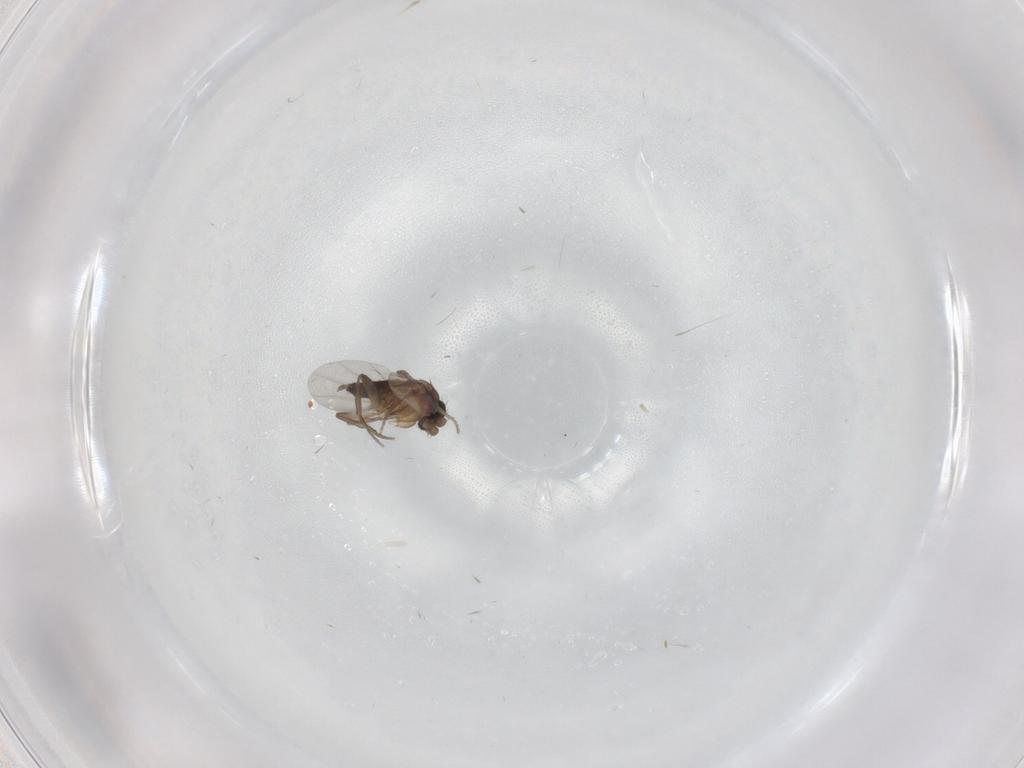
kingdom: Animalia
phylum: Arthropoda
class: Insecta
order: Diptera
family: Phoridae
